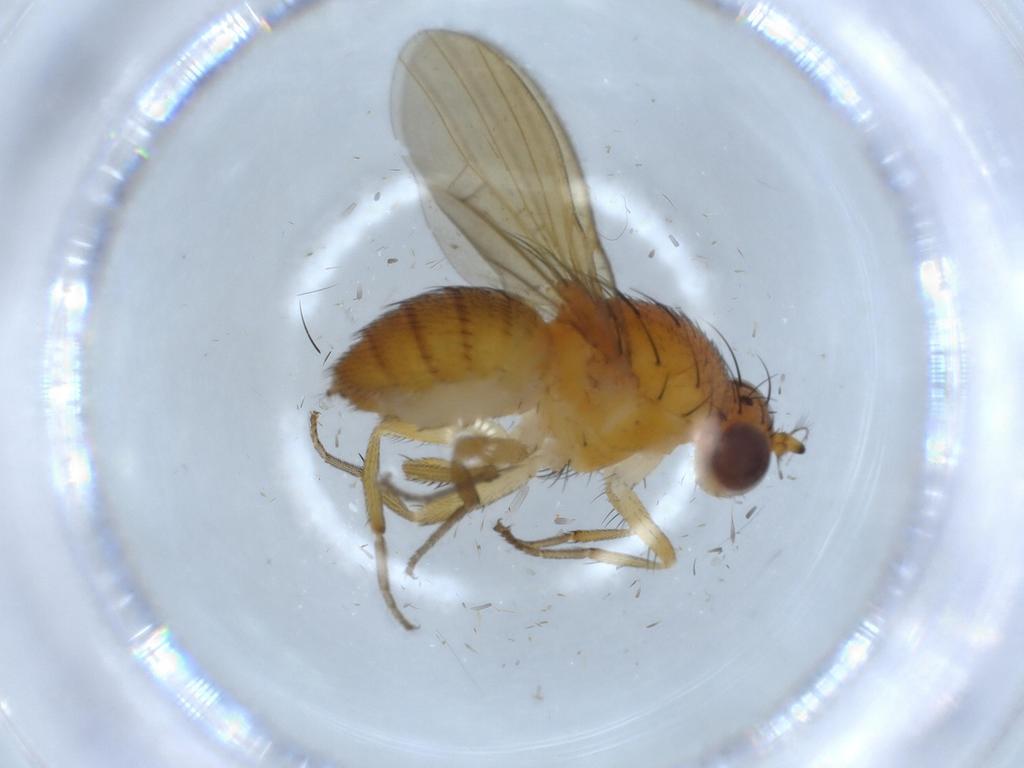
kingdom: Animalia
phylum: Arthropoda
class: Insecta
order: Diptera
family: Lauxaniidae
